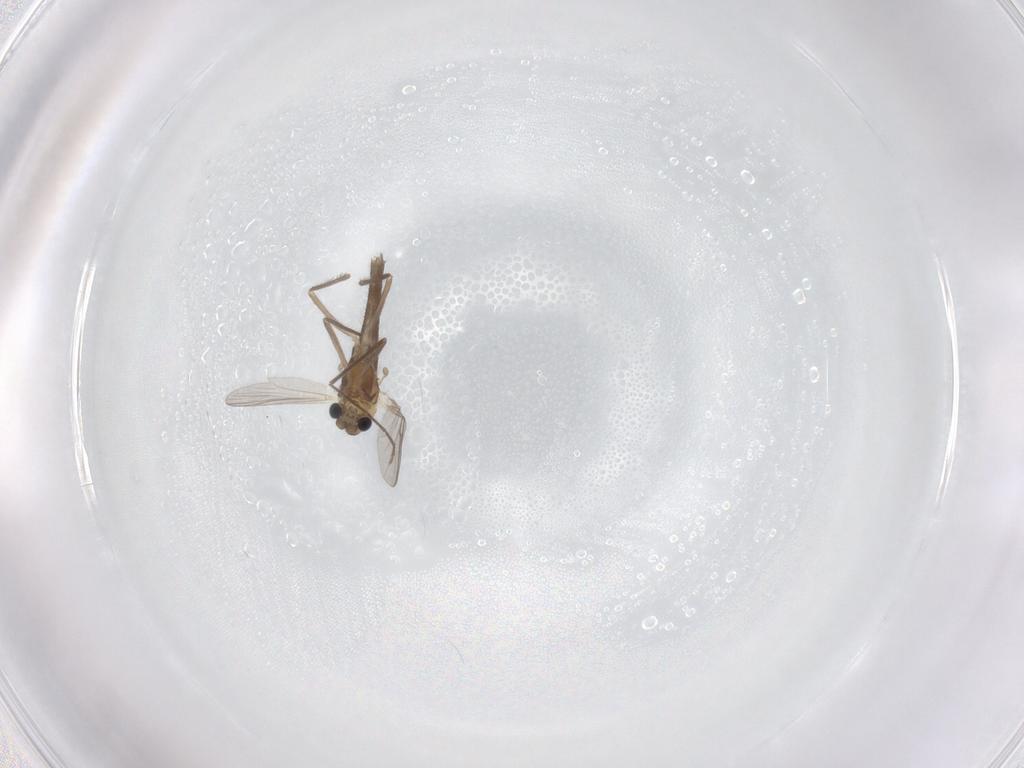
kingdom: Animalia
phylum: Arthropoda
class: Insecta
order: Diptera
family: Chironomidae
